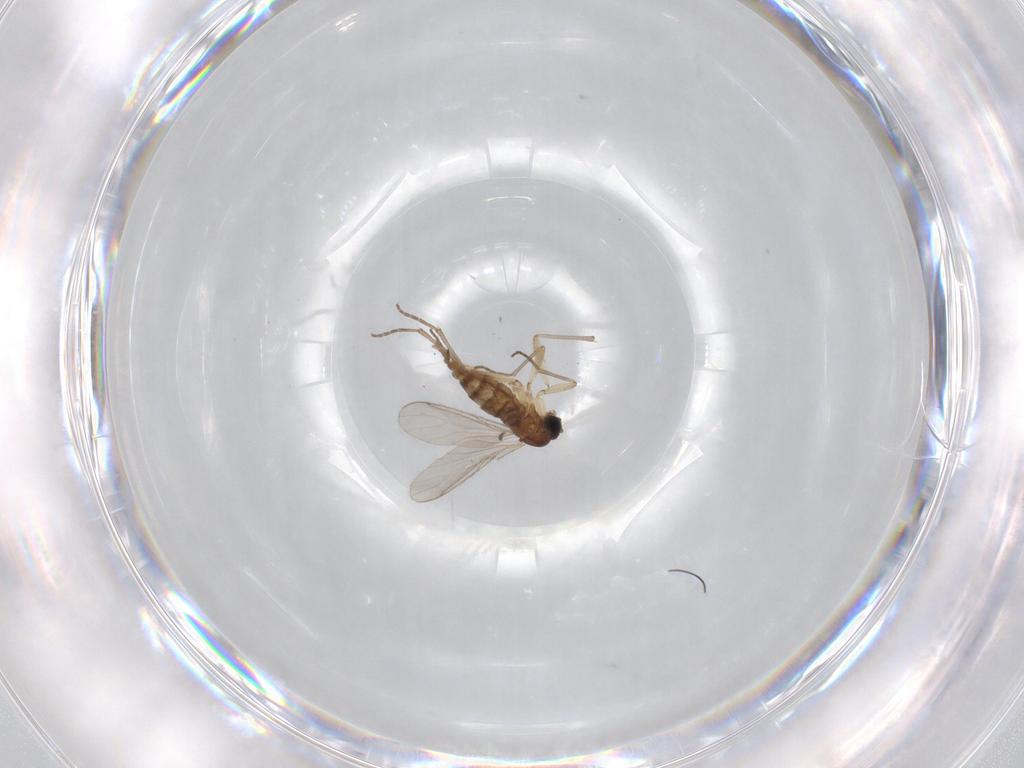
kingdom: Animalia
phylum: Arthropoda
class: Insecta
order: Diptera
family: Sciaridae
